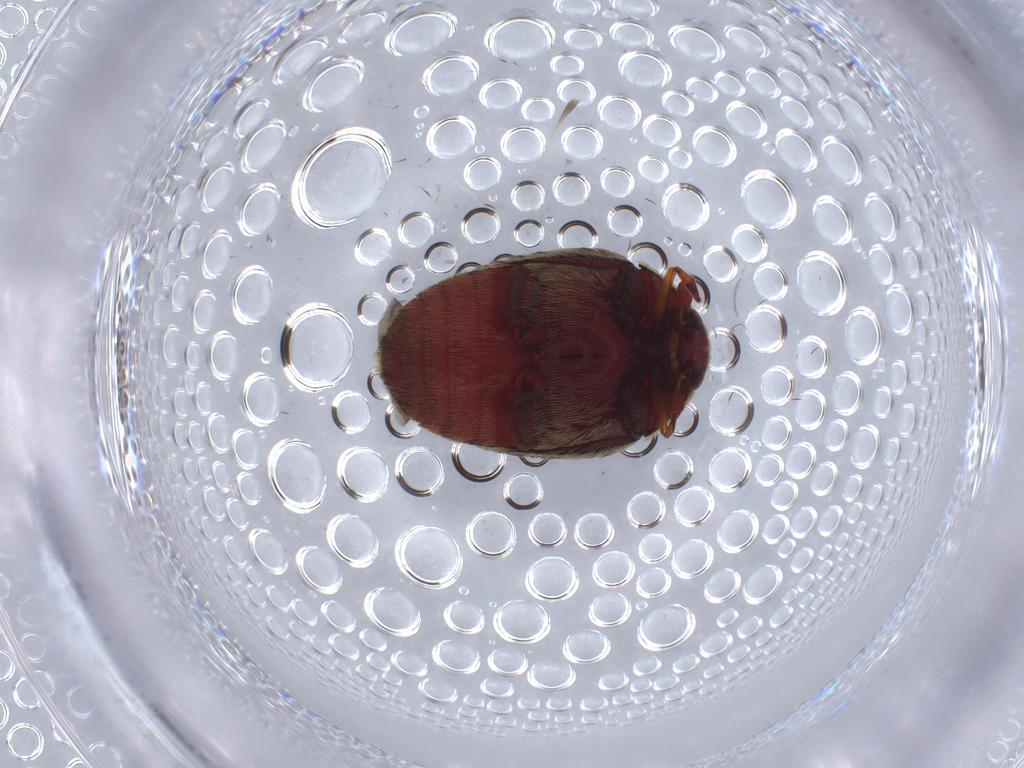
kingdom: Animalia
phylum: Arthropoda
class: Insecta
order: Coleoptera
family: Dermestidae
